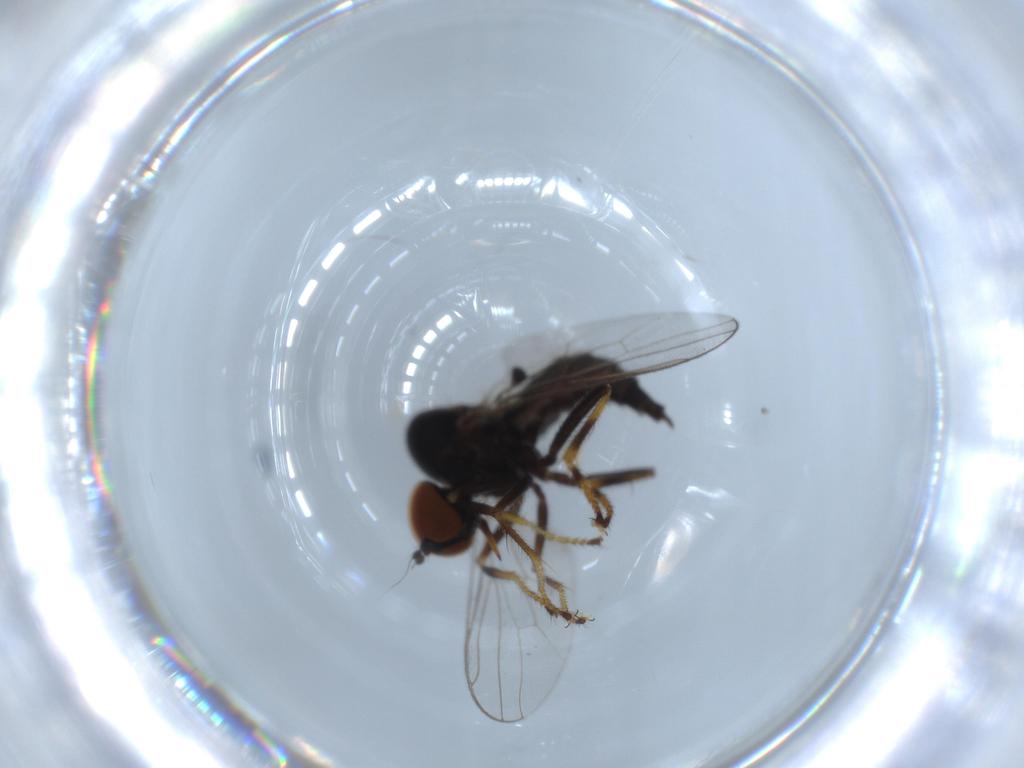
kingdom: Animalia
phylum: Arthropoda
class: Insecta
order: Diptera
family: Hybotidae
